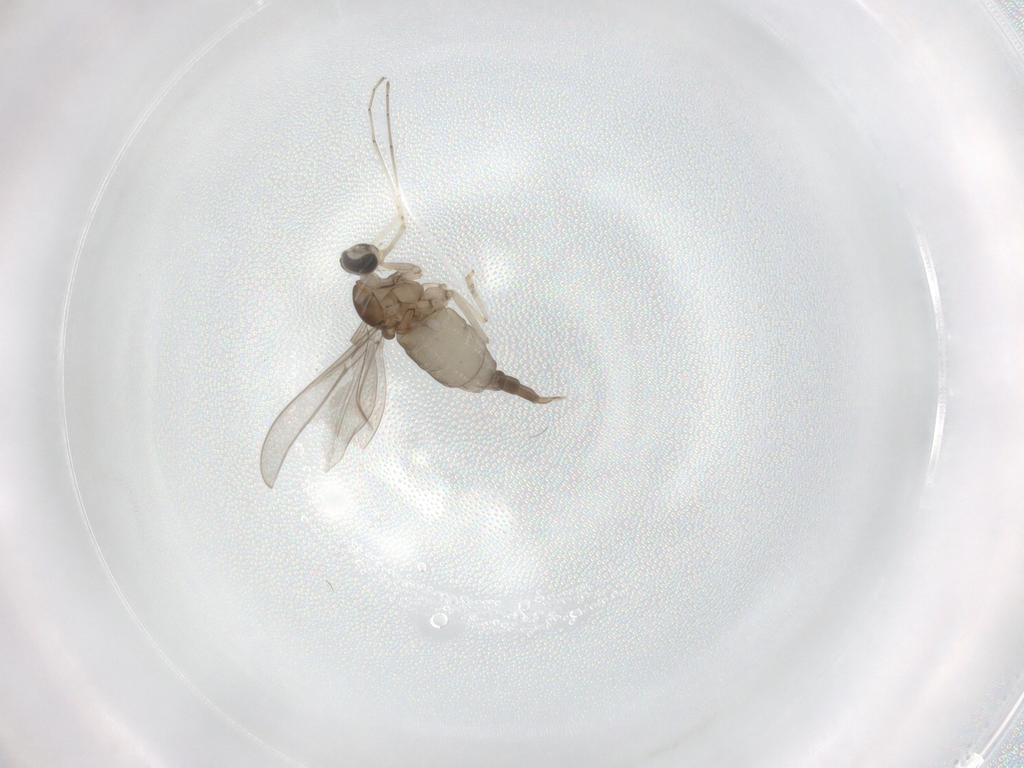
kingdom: Animalia
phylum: Arthropoda
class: Insecta
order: Diptera
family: Cecidomyiidae
